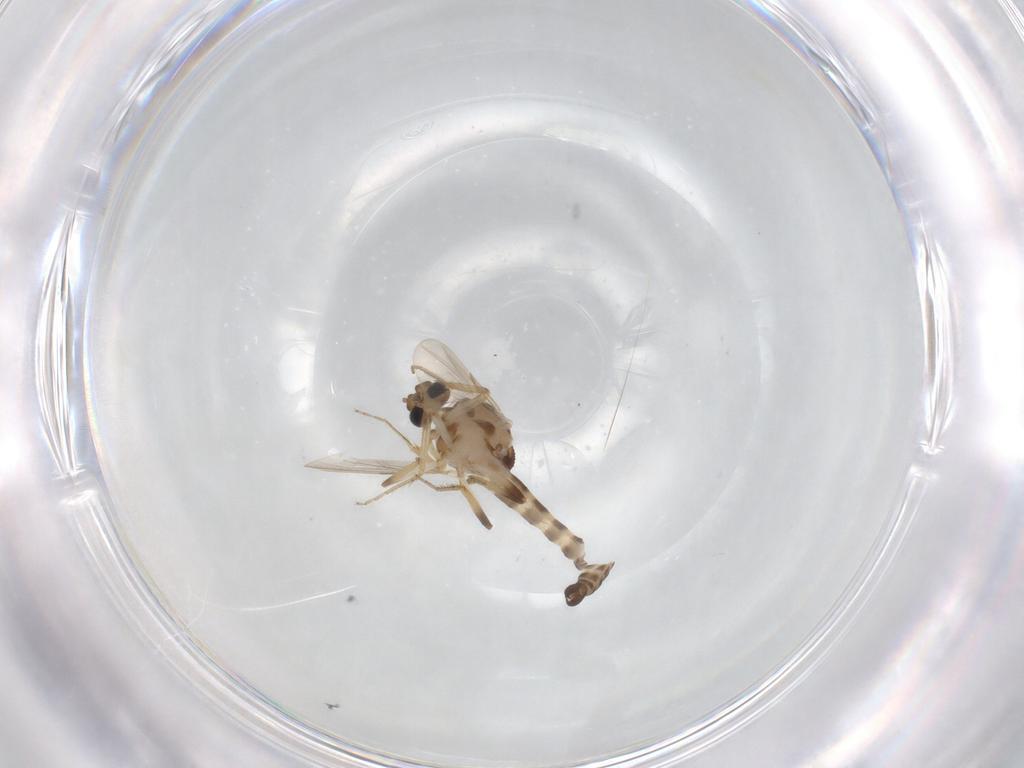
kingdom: Animalia
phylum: Arthropoda
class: Insecta
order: Diptera
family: Ceratopogonidae
